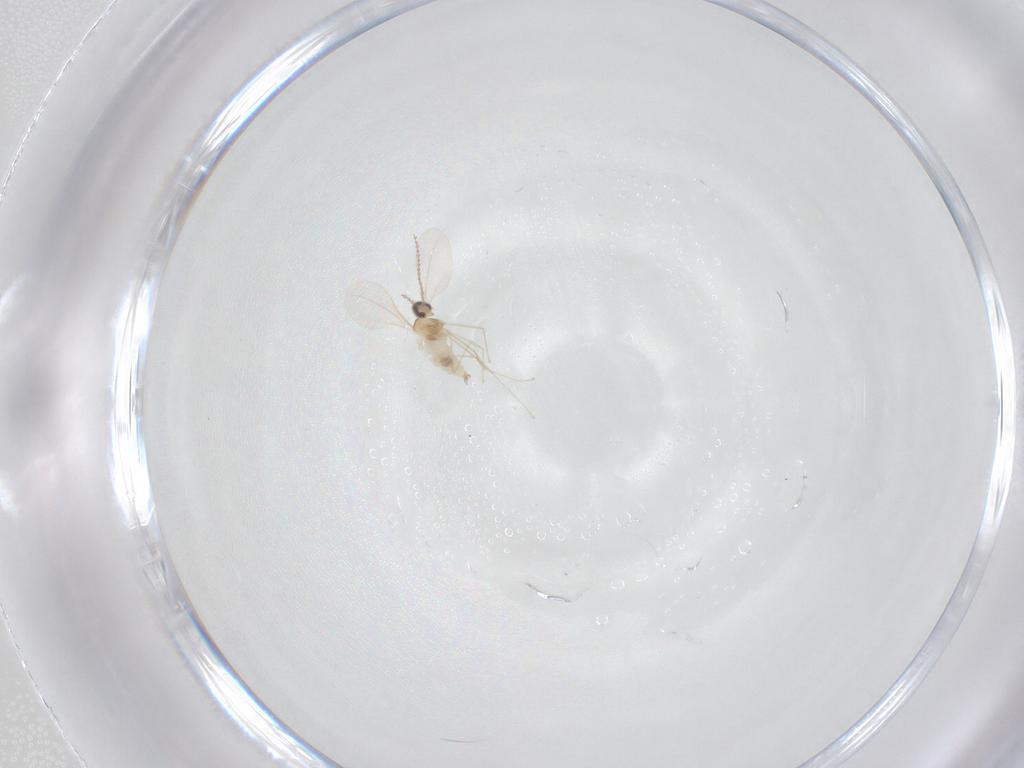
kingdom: Animalia
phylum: Arthropoda
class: Insecta
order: Diptera
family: Cecidomyiidae
